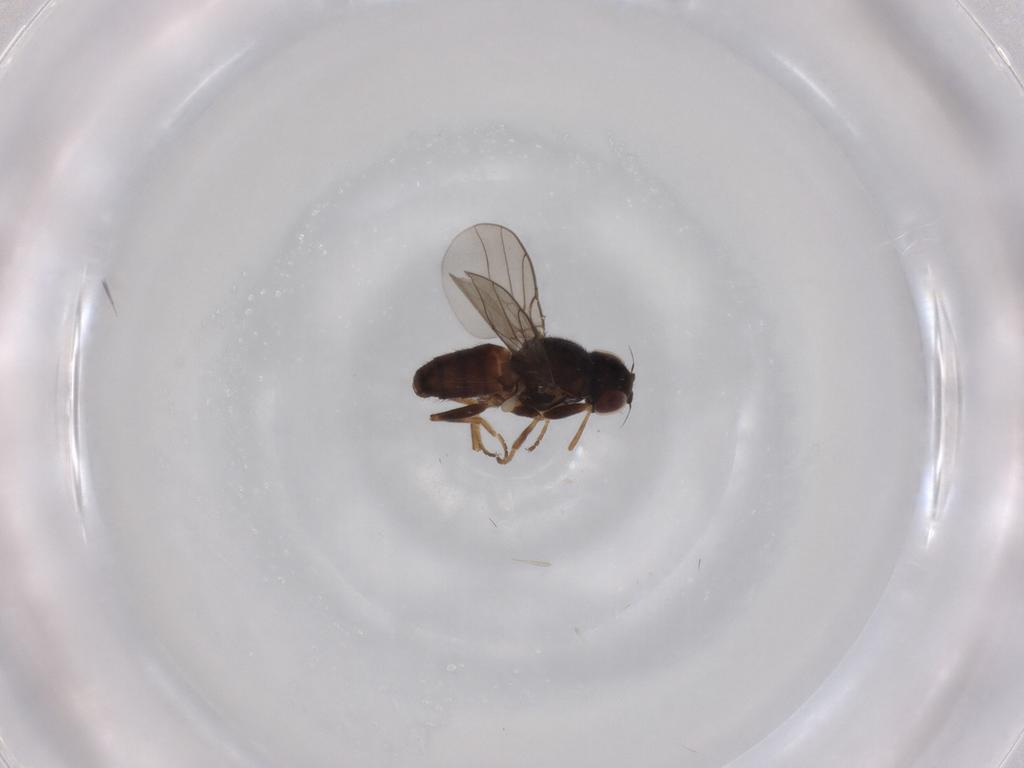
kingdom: Animalia
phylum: Arthropoda
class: Insecta
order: Diptera
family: Chloropidae
